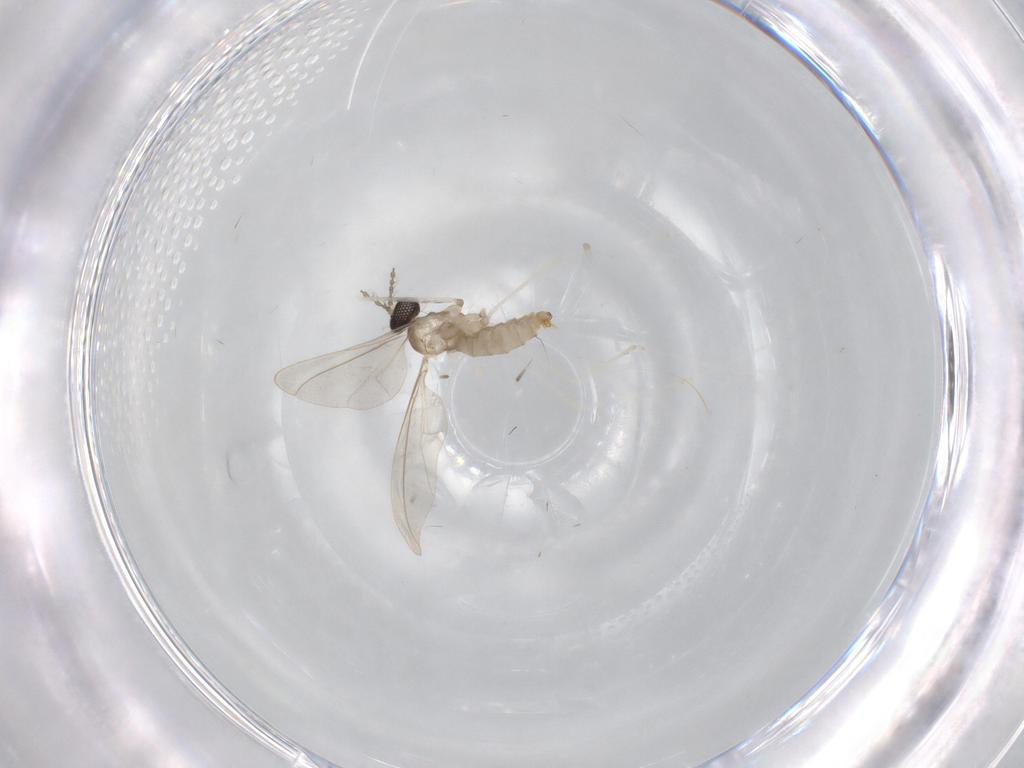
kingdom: Animalia
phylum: Arthropoda
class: Insecta
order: Diptera
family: Cecidomyiidae
